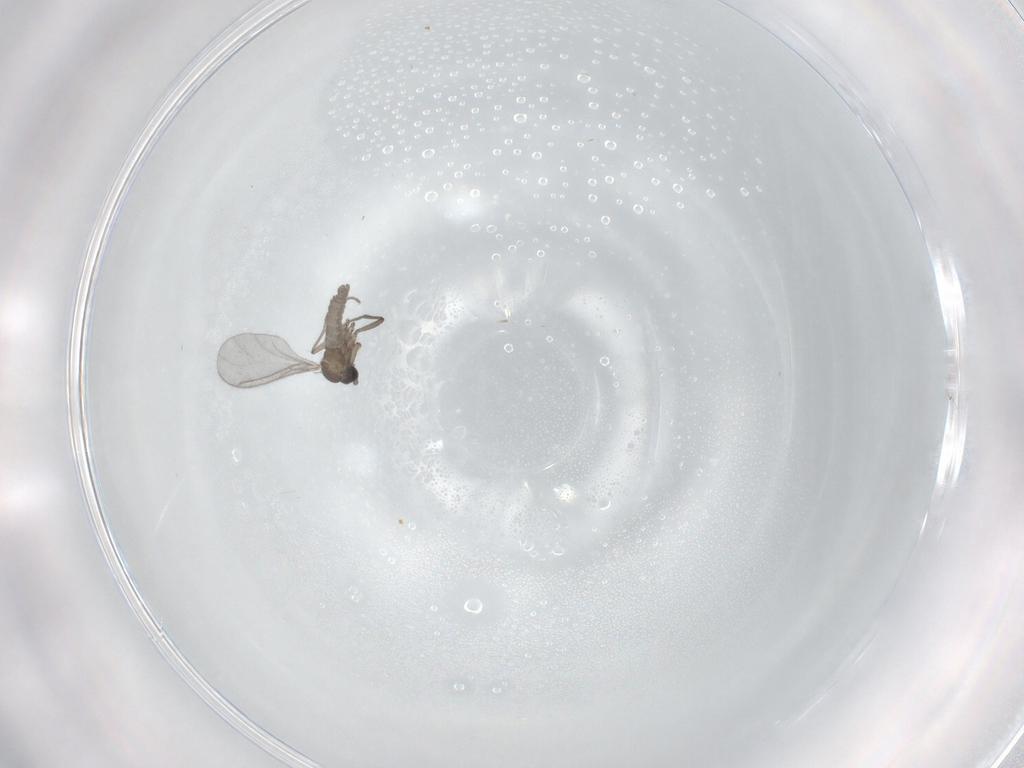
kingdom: Animalia
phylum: Arthropoda
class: Insecta
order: Diptera
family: Sciaridae
